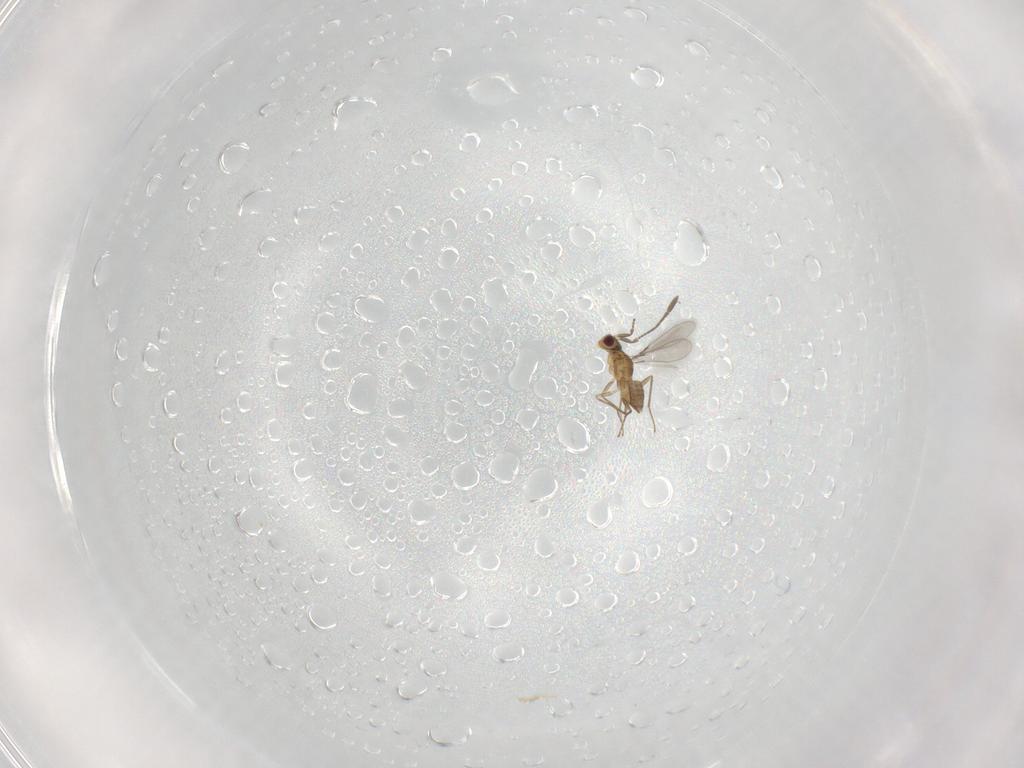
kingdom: Animalia
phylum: Arthropoda
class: Insecta
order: Hymenoptera
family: Mymaridae
